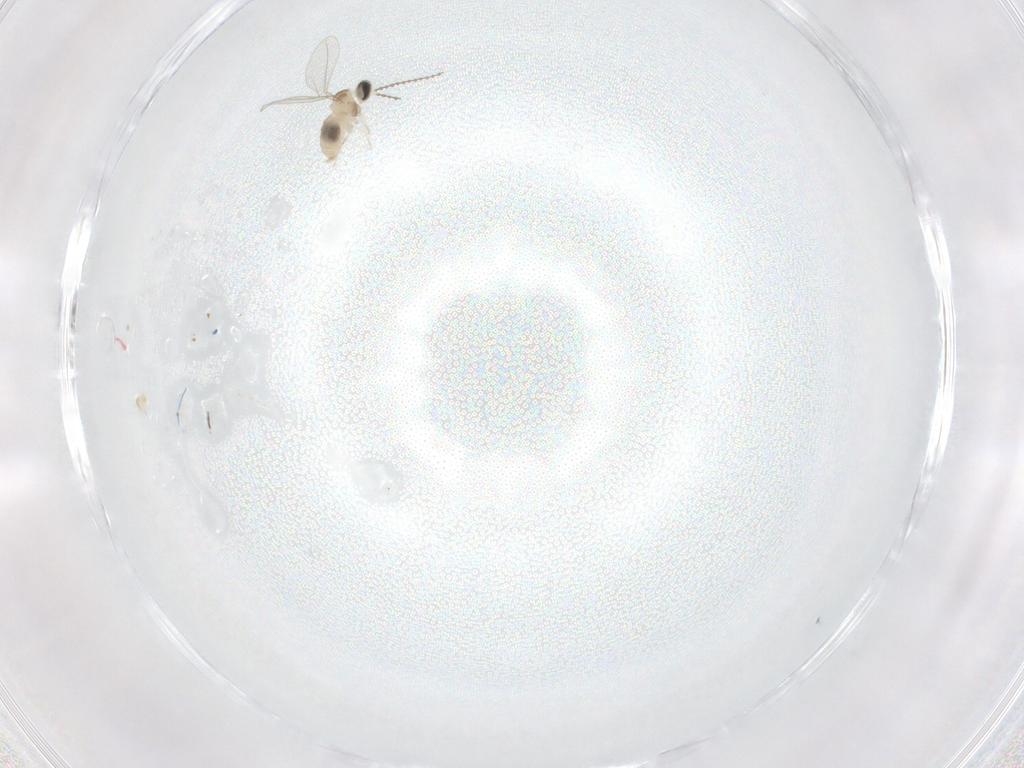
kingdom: Animalia
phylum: Arthropoda
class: Insecta
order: Diptera
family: Cecidomyiidae
